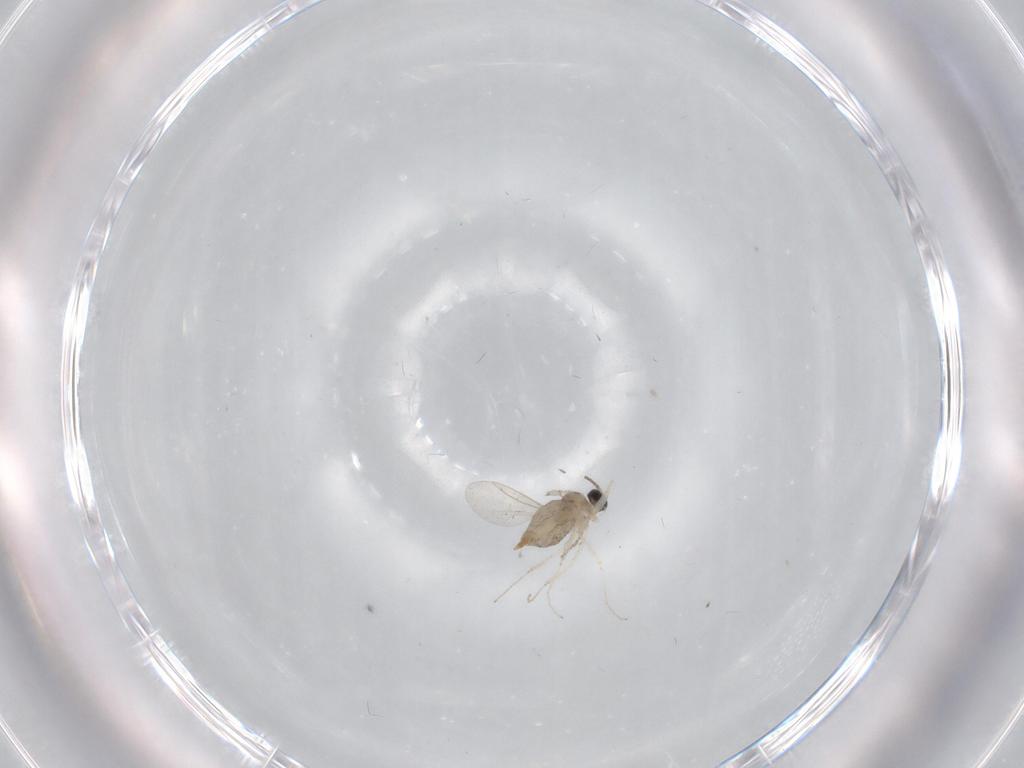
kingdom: Animalia
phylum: Arthropoda
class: Insecta
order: Diptera
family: Cecidomyiidae
